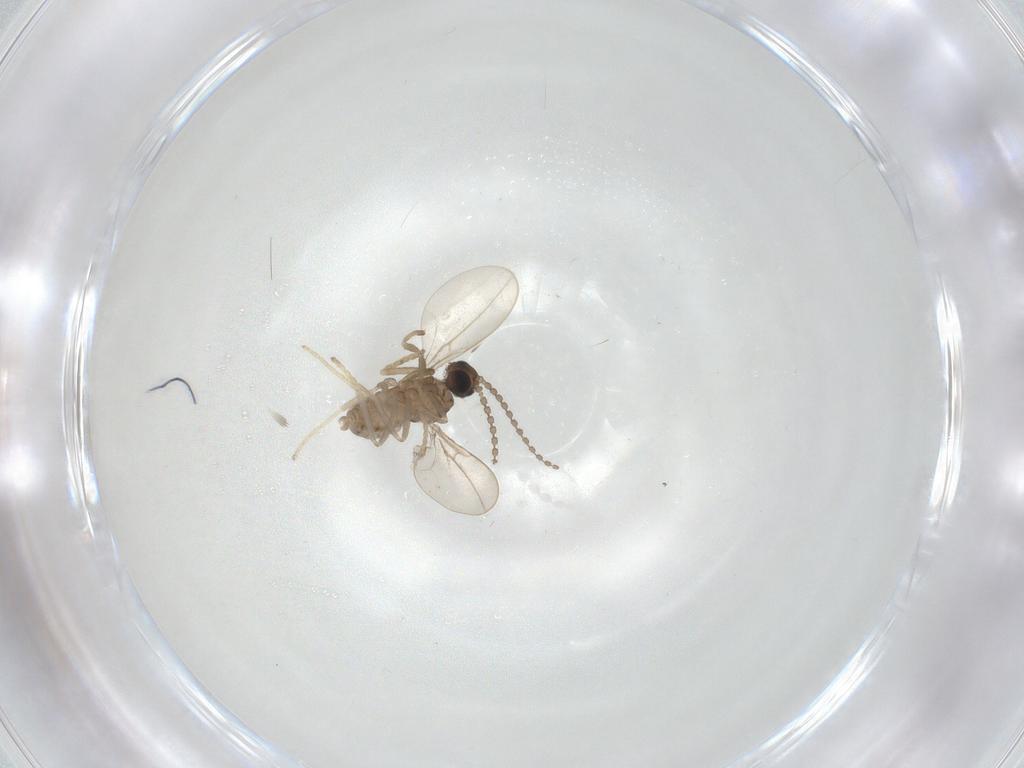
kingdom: Animalia
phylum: Arthropoda
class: Insecta
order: Diptera
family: Cecidomyiidae
